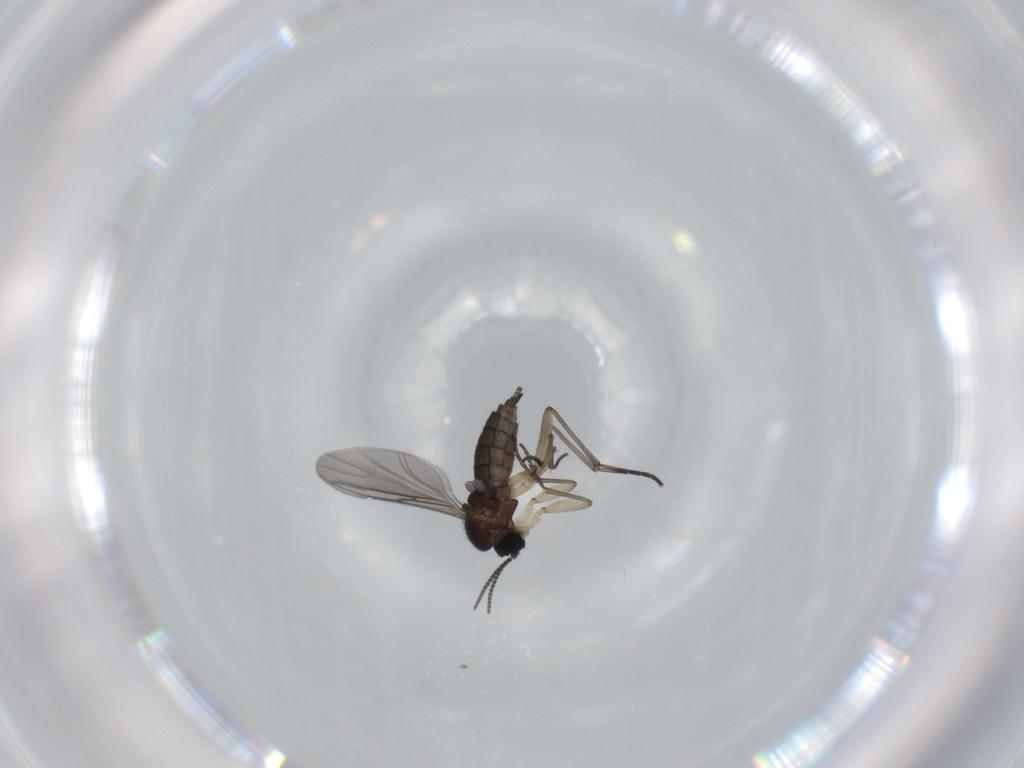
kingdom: Animalia
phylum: Arthropoda
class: Insecta
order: Diptera
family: Sciaridae
